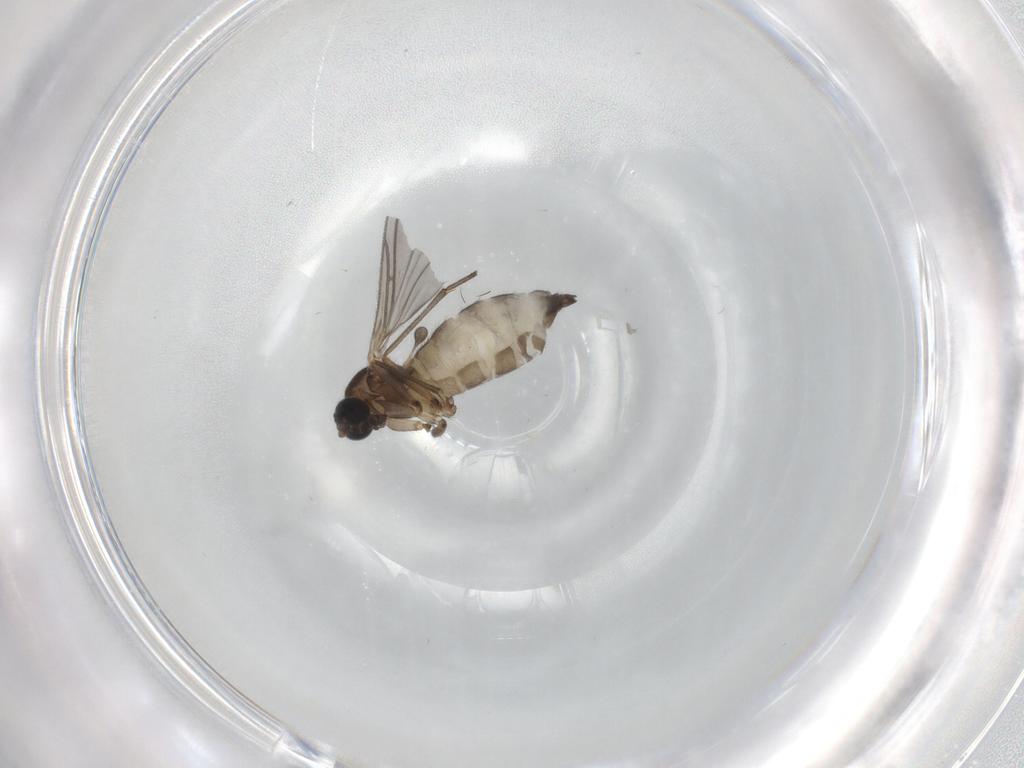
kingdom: Animalia
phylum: Arthropoda
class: Insecta
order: Diptera
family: Sciaridae
